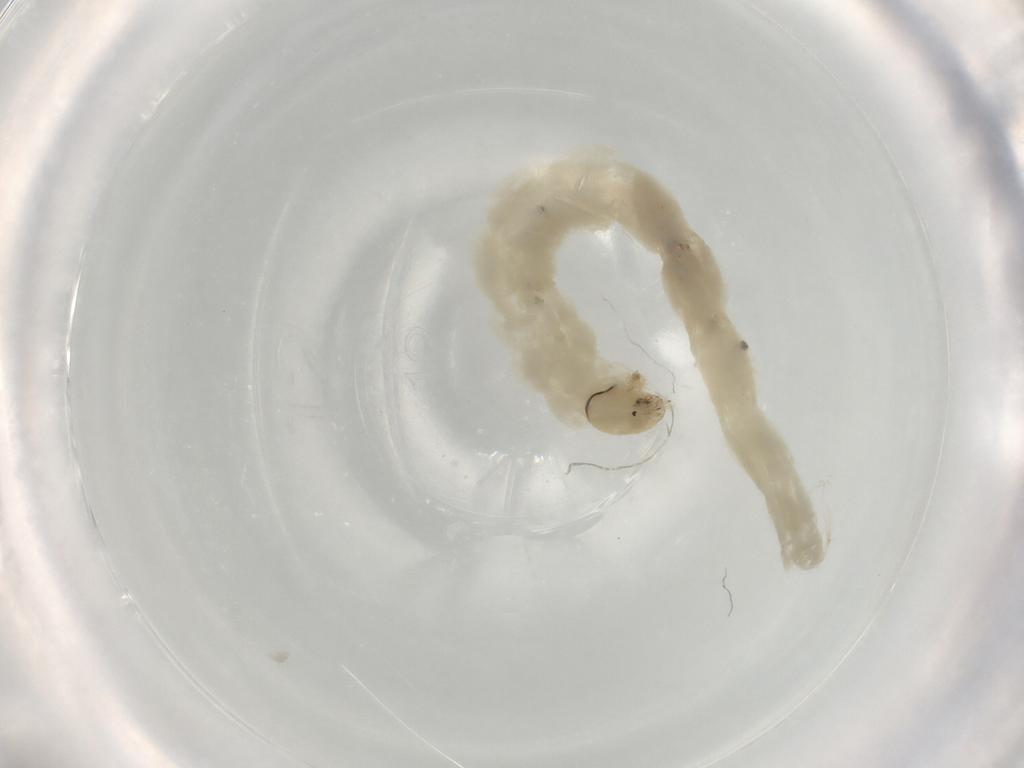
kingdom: Animalia
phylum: Arthropoda
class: Insecta
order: Diptera
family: Chironomidae
